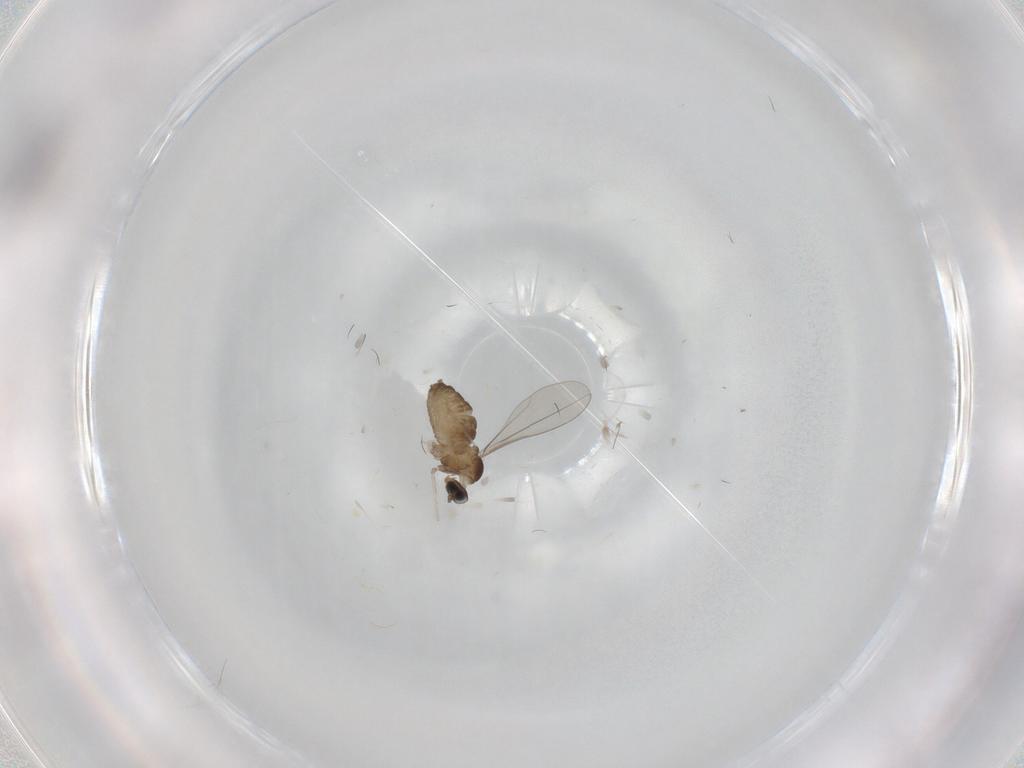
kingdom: Animalia
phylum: Arthropoda
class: Insecta
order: Diptera
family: Cecidomyiidae
